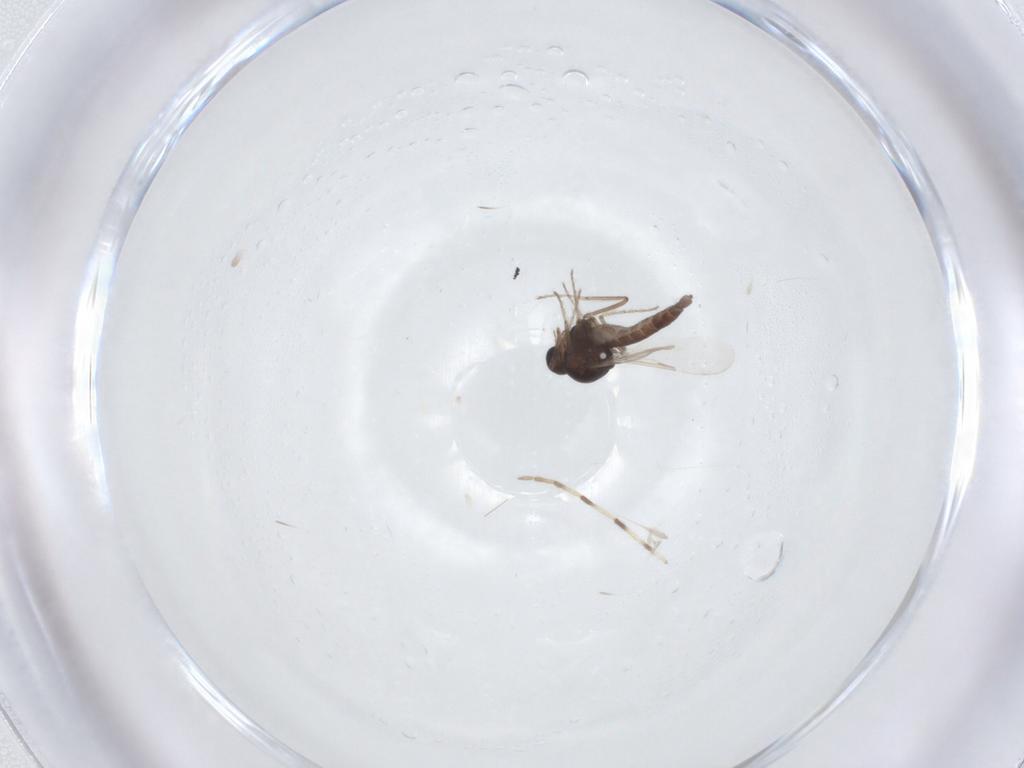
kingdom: Animalia
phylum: Arthropoda
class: Insecta
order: Diptera
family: Ceratopogonidae
